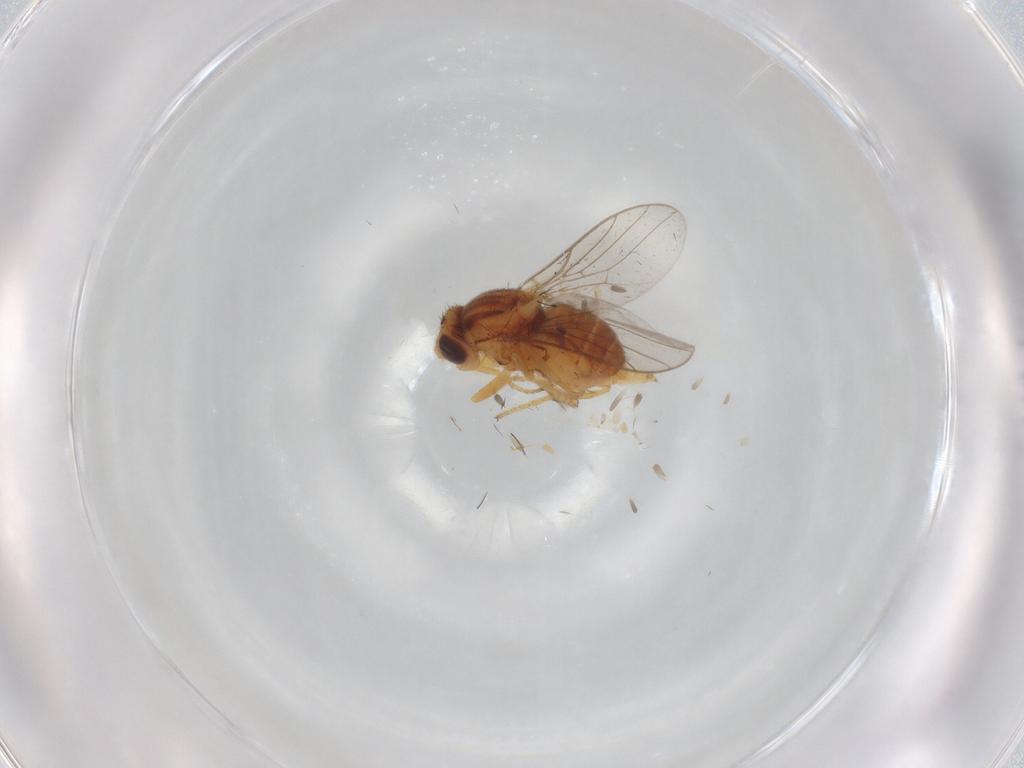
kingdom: Animalia
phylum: Arthropoda
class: Insecta
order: Diptera
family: Chloropidae
